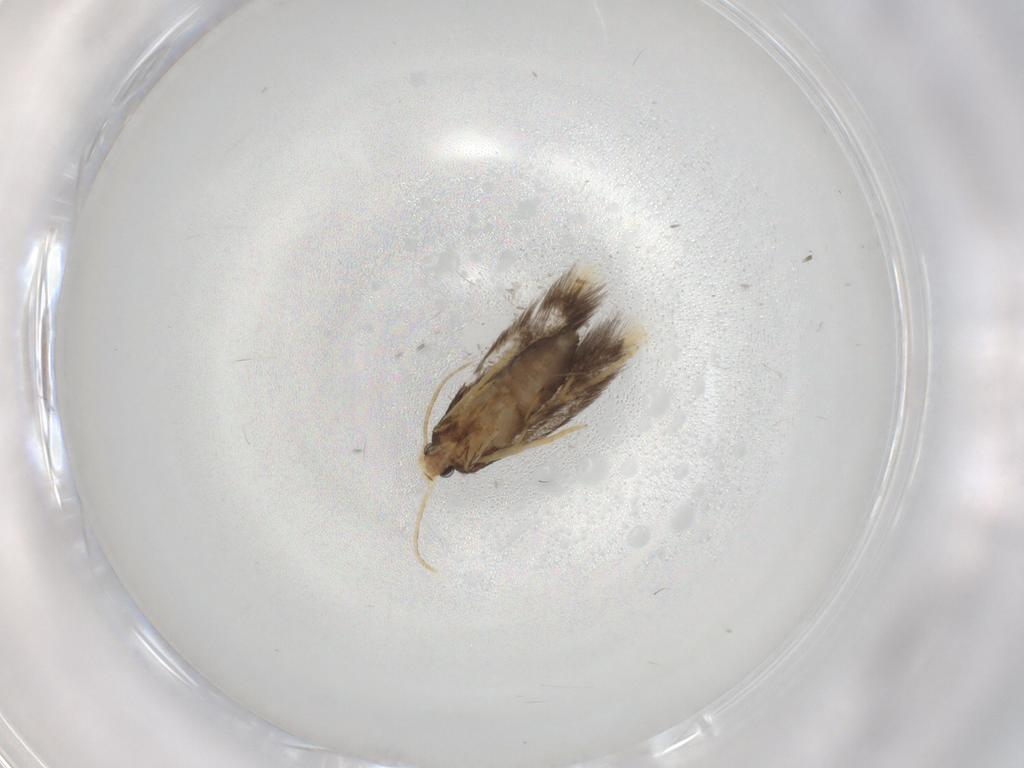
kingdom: Animalia
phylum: Arthropoda
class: Insecta
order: Lepidoptera
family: Nepticulidae
